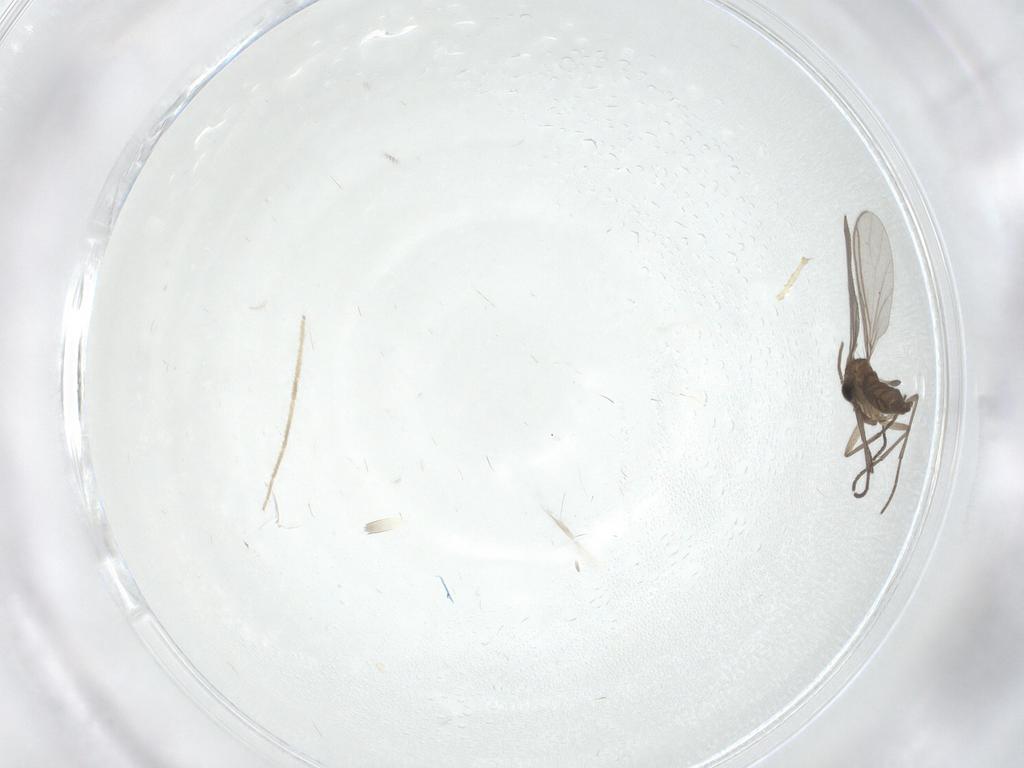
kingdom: Animalia
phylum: Arthropoda
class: Insecta
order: Diptera
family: Sciaridae
